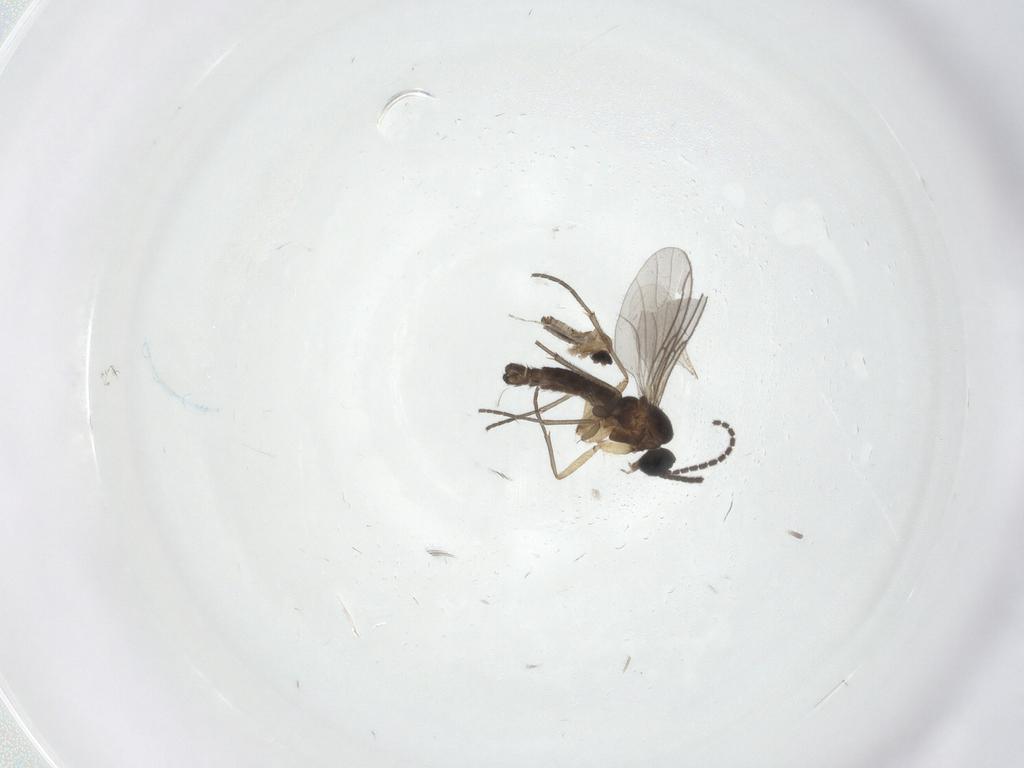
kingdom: Animalia
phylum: Arthropoda
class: Insecta
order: Diptera
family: Sciaridae
